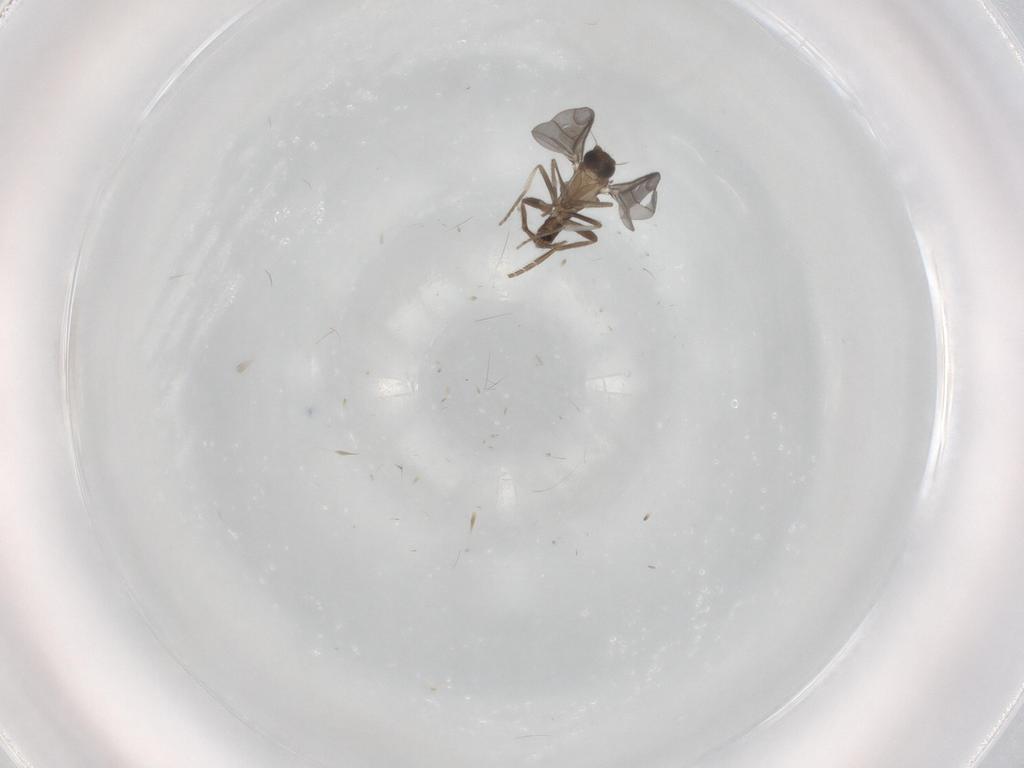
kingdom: Animalia
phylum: Arthropoda
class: Insecta
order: Diptera
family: Phoridae
